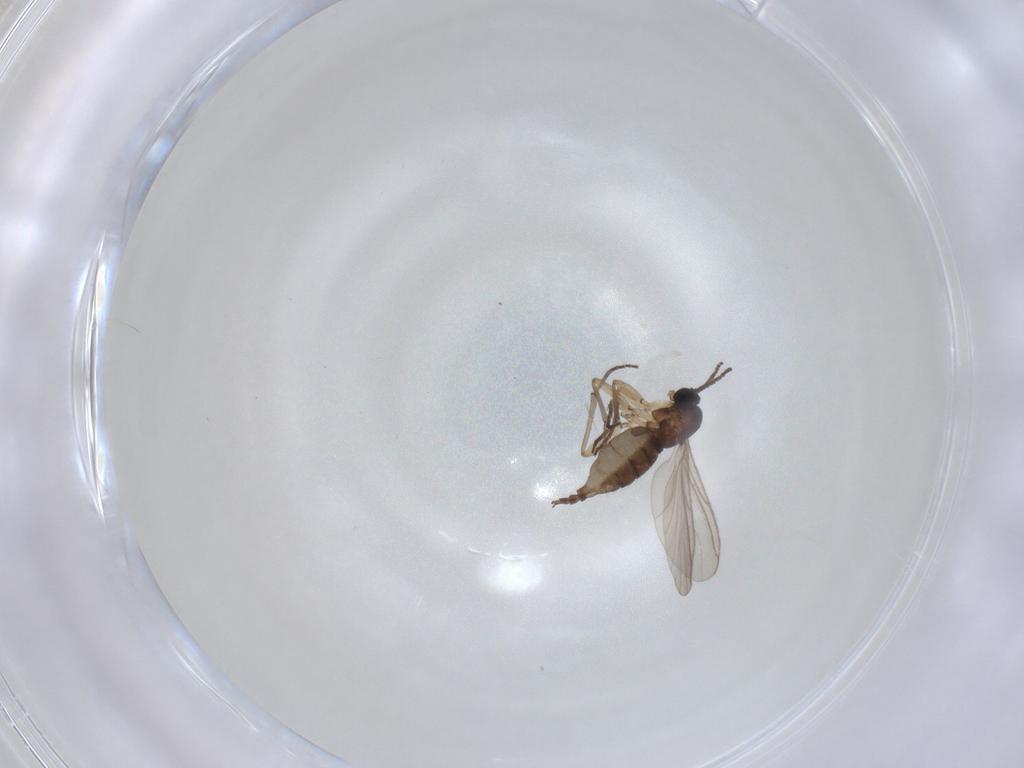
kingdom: Animalia
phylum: Arthropoda
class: Insecta
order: Diptera
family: Sciaridae
